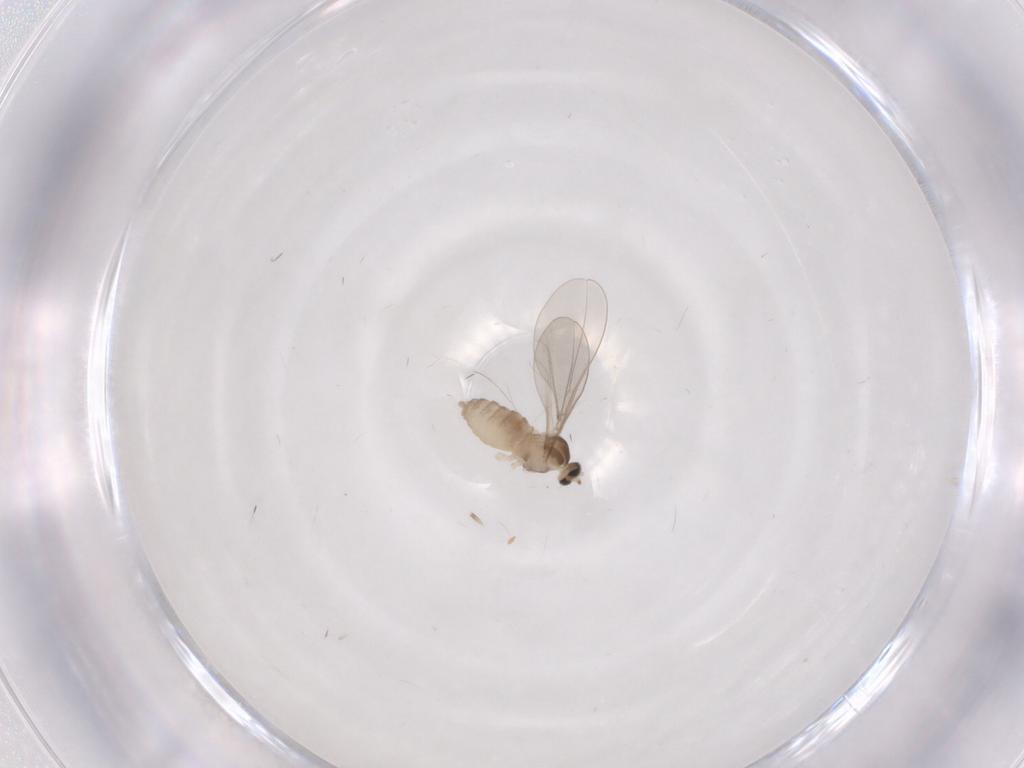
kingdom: Animalia
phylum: Arthropoda
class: Insecta
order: Diptera
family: Cecidomyiidae
